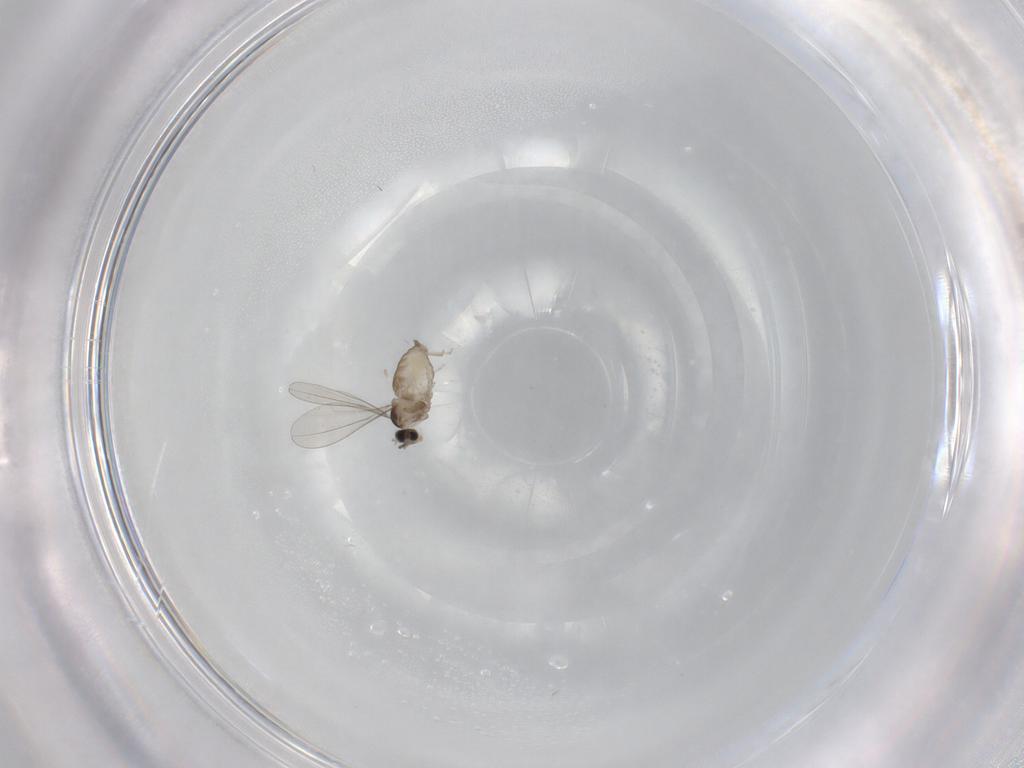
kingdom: Animalia
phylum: Arthropoda
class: Insecta
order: Diptera
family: Cecidomyiidae
